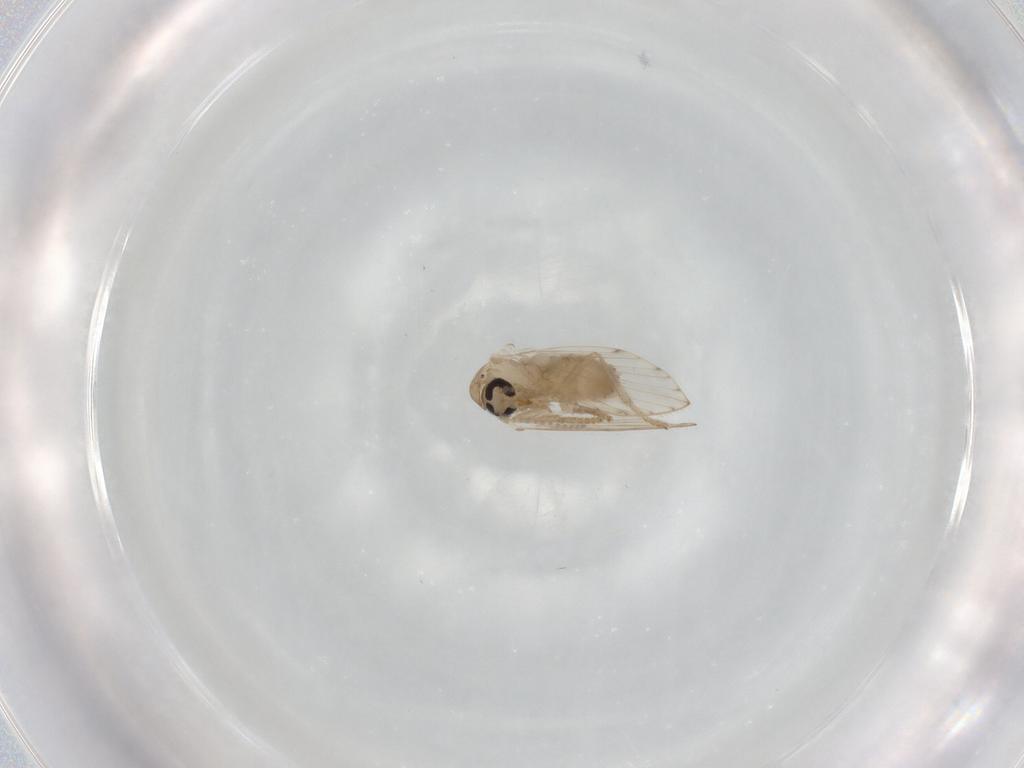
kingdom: Animalia
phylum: Arthropoda
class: Insecta
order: Diptera
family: Psychodidae
